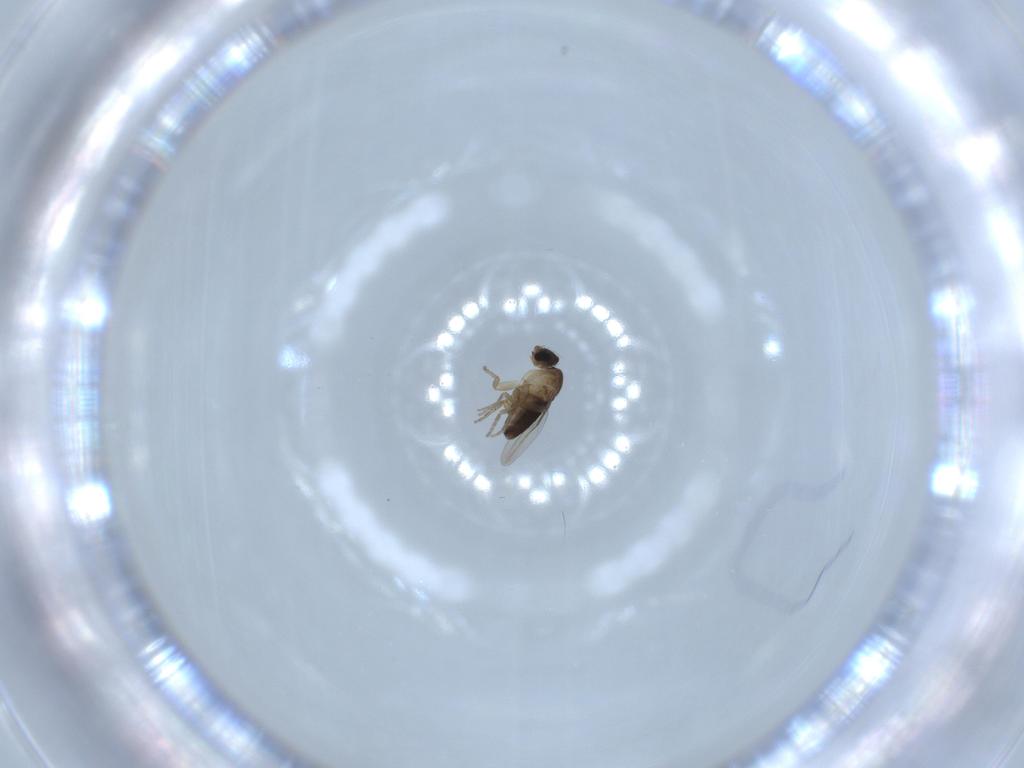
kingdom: Animalia
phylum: Arthropoda
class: Insecta
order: Diptera
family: Phoridae
